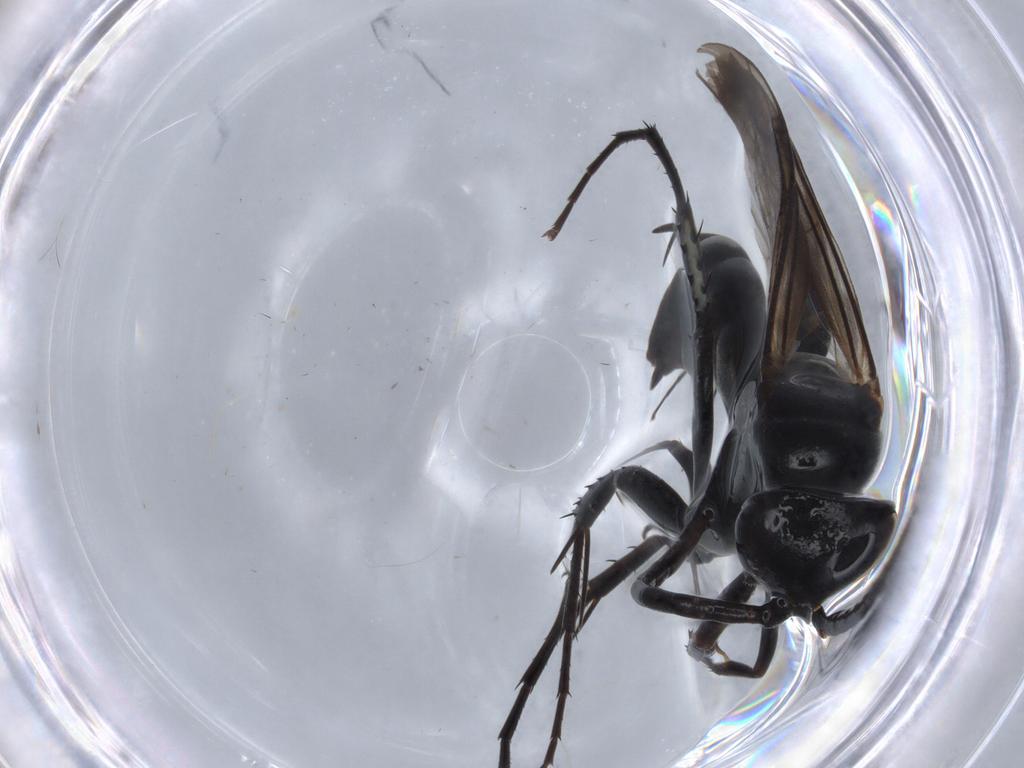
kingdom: Animalia
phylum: Arthropoda
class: Insecta
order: Hymenoptera
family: Pompilidae
